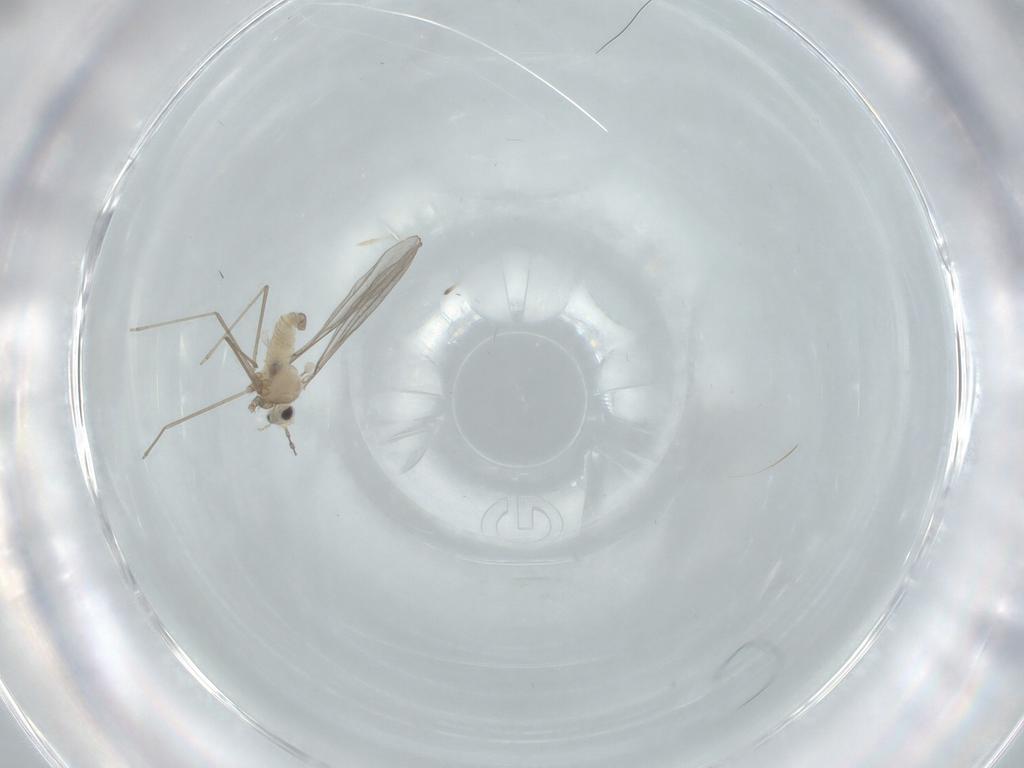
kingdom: Animalia
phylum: Arthropoda
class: Insecta
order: Diptera
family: Cecidomyiidae
